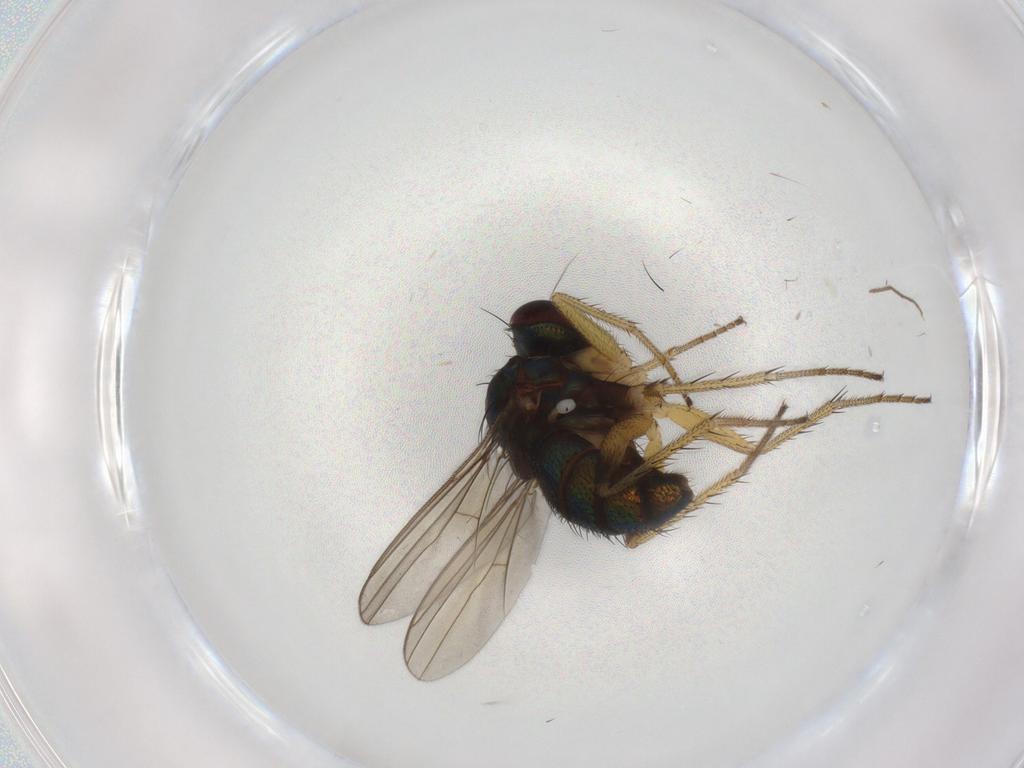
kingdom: Animalia
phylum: Arthropoda
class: Insecta
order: Diptera
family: Dolichopodidae
